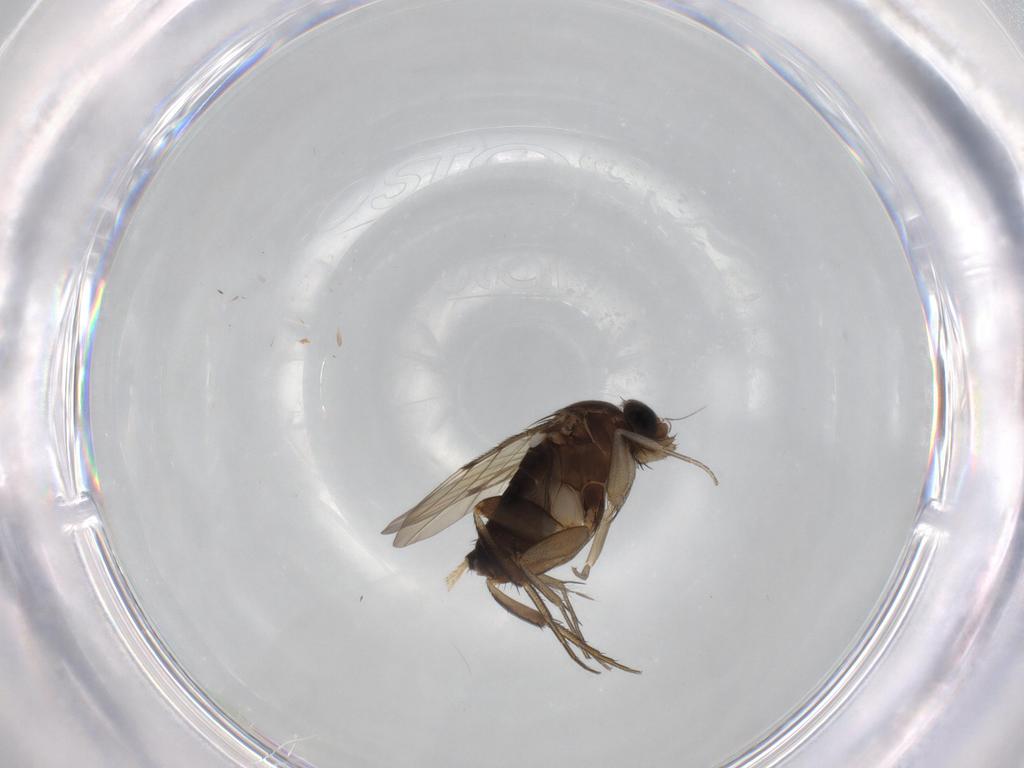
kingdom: Animalia
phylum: Arthropoda
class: Insecta
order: Diptera
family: Phoridae
